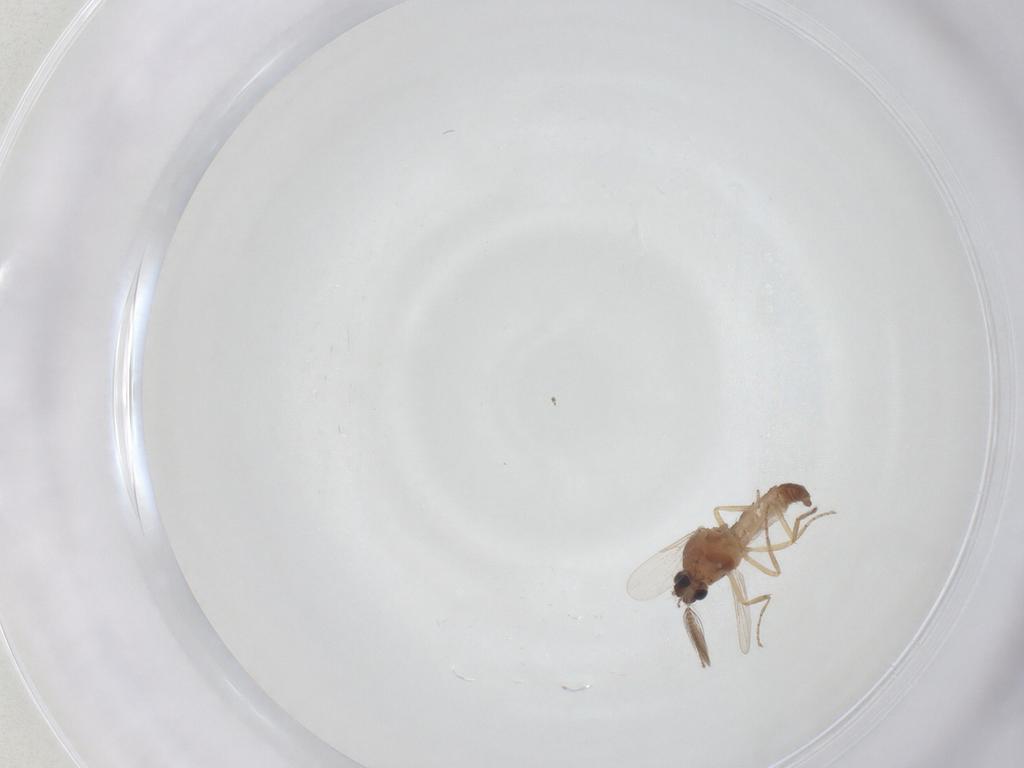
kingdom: Animalia
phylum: Arthropoda
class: Insecta
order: Diptera
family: Ceratopogonidae
